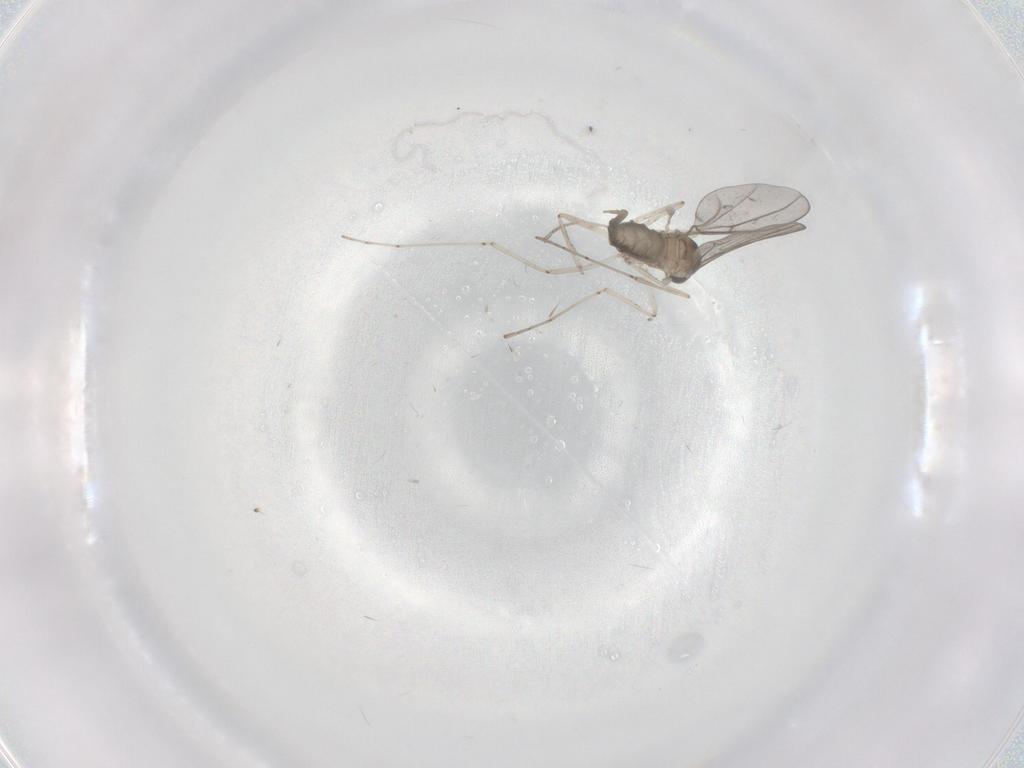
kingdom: Animalia
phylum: Arthropoda
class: Insecta
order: Diptera
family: Cecidomyiidae
